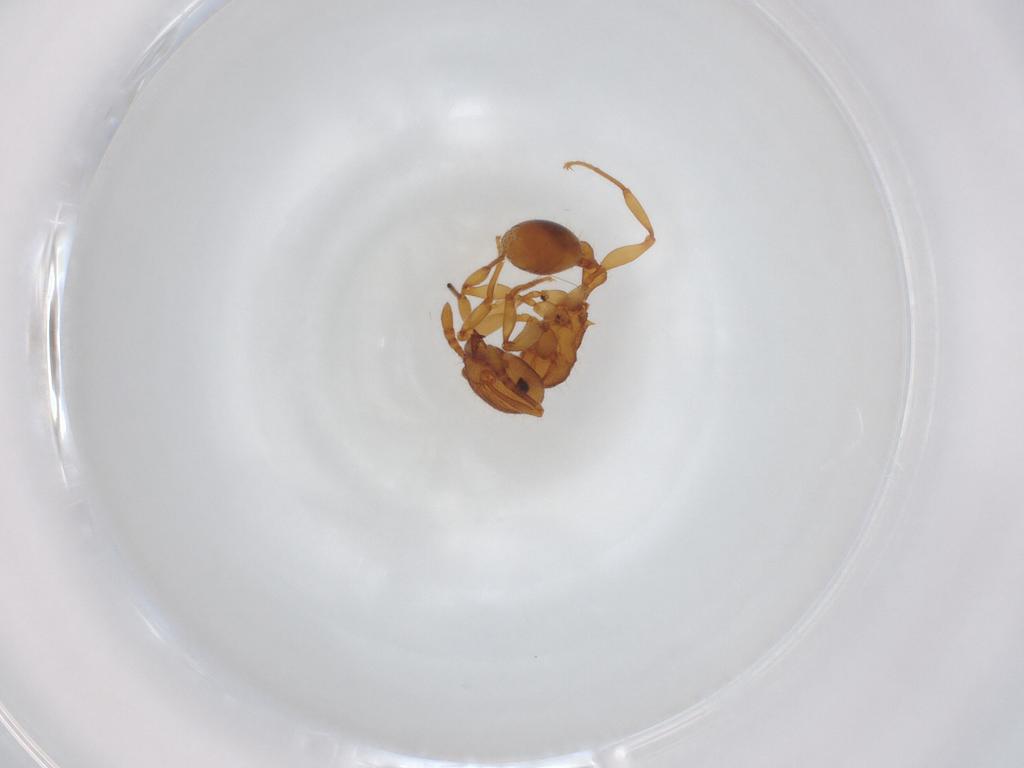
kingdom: Animalia
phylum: Arthropoda
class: Insecta
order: Hymenoptera
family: Formicidae
